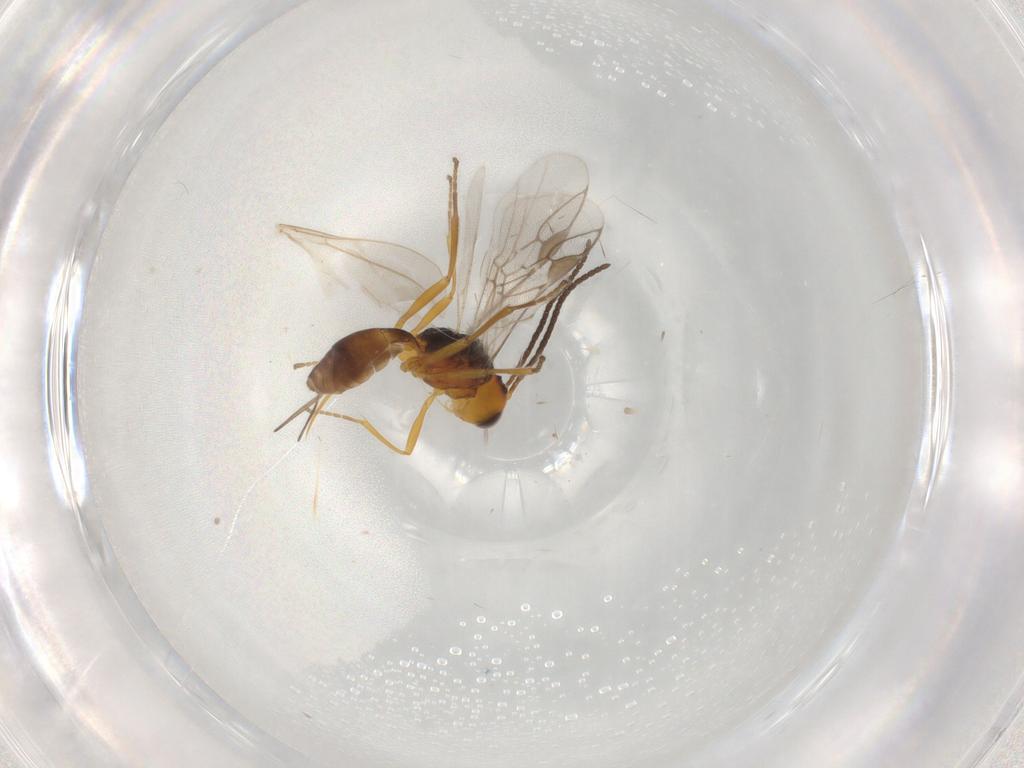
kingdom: Animalia
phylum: Arthropoda
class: Insecta
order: Hymenoptera
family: Braconidae
